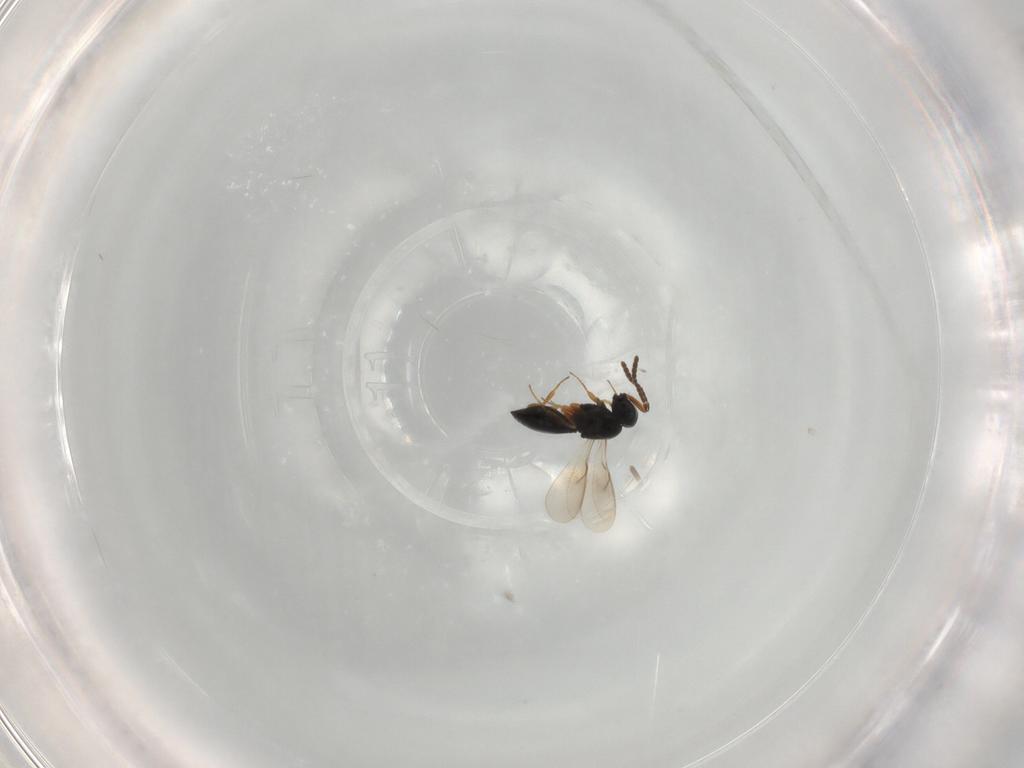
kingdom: Animalia
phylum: Arthropoda
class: Insecta
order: Hymenoptera
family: Scelionidae
